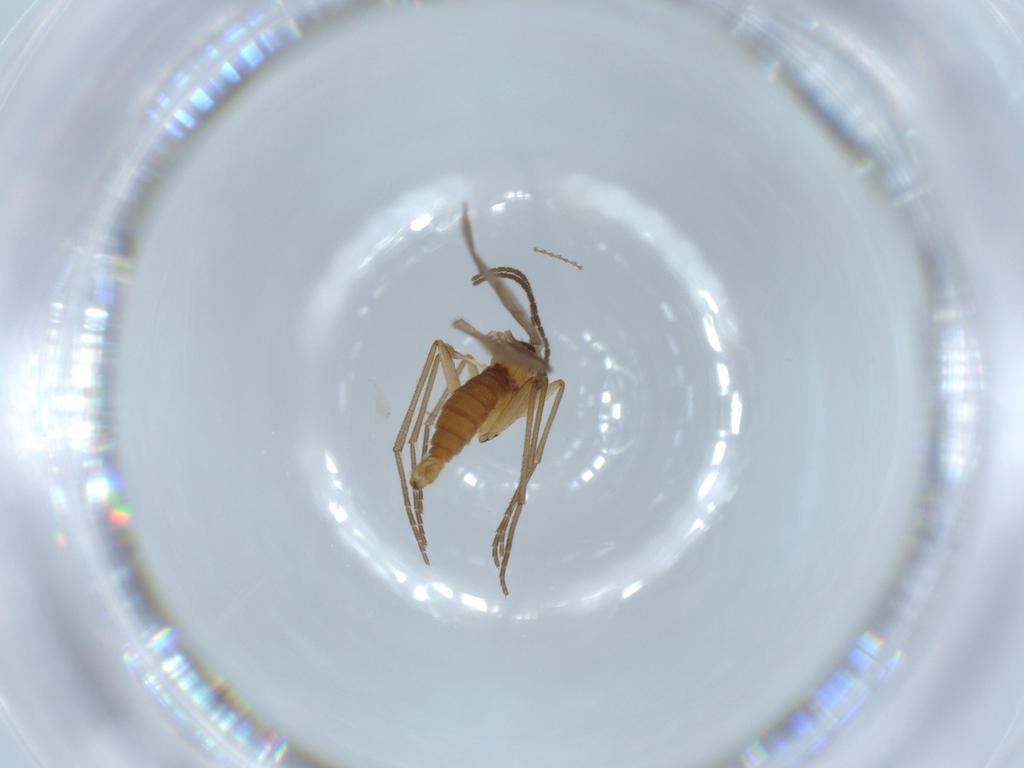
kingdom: Animalia
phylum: Arthropoda
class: Insecta
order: Diptera
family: Sciaridae
